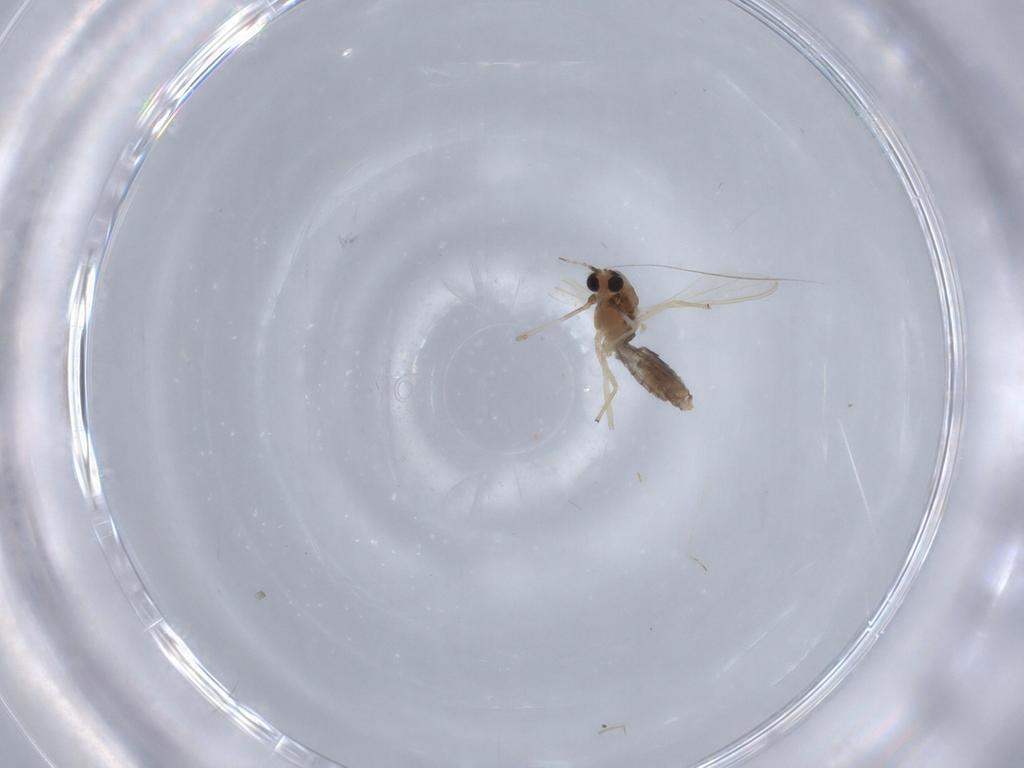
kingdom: Animalia
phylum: Arthropoda
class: Insecta
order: Diptera
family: Chironomidae
